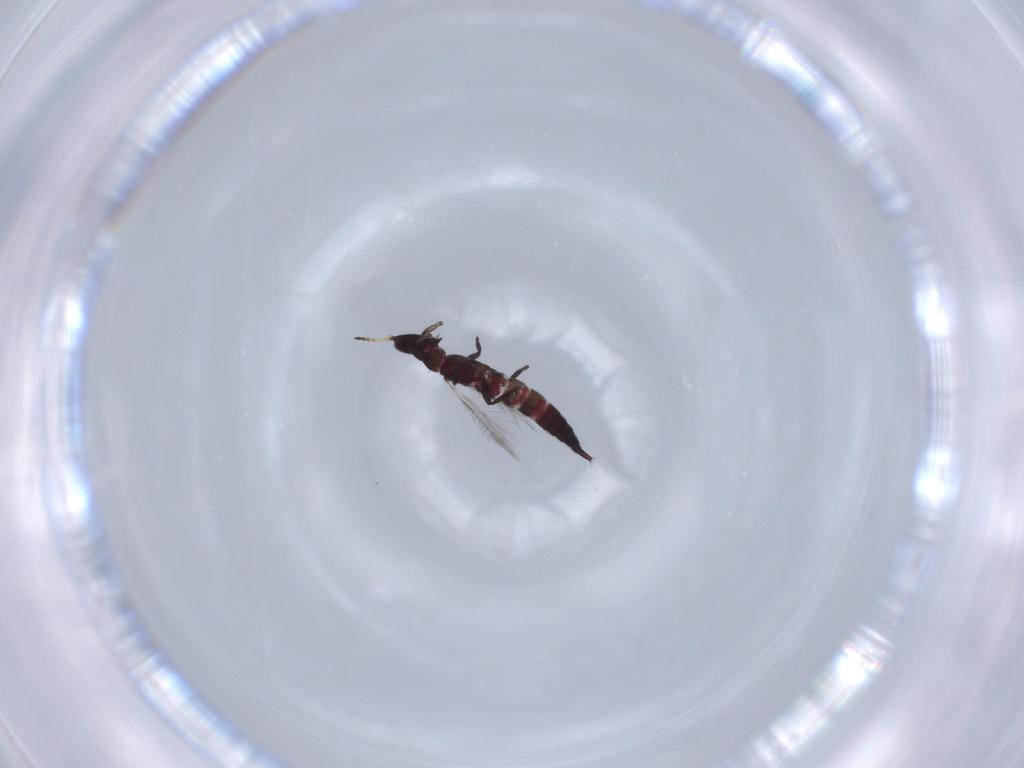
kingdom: Animalia
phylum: Arthropoda
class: Insecta
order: Thysanoptera
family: Phlaeothripidae
